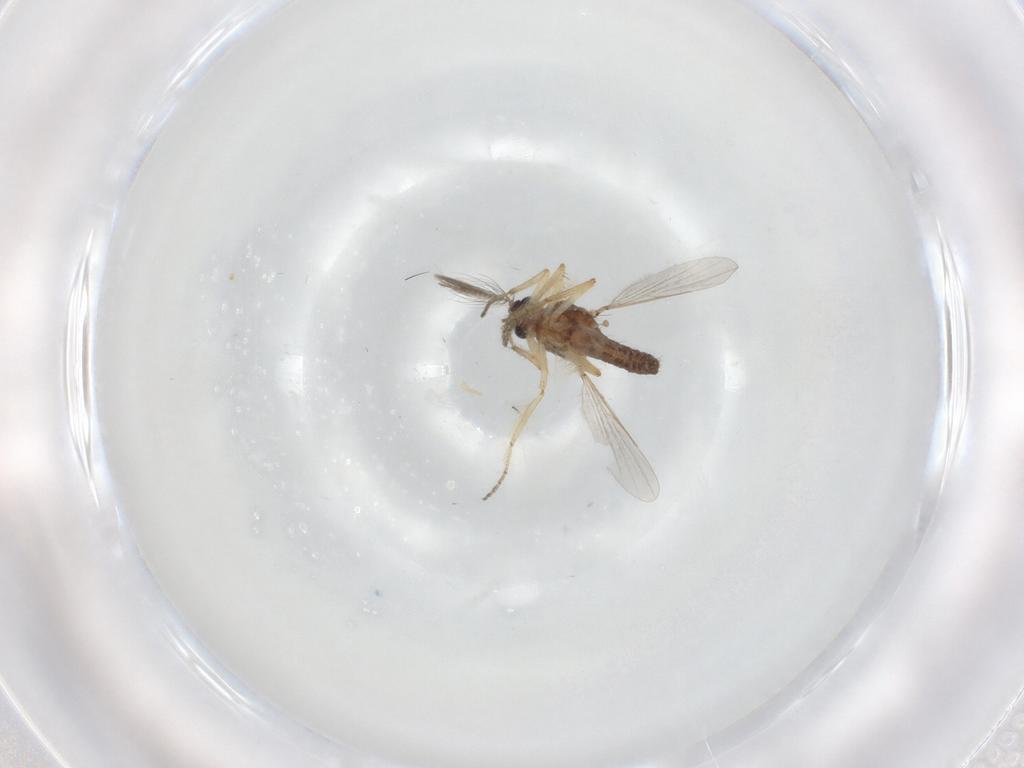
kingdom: Animalia
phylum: Arthropoda
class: Insecta
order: Diptera
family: Ceratopogonidae
